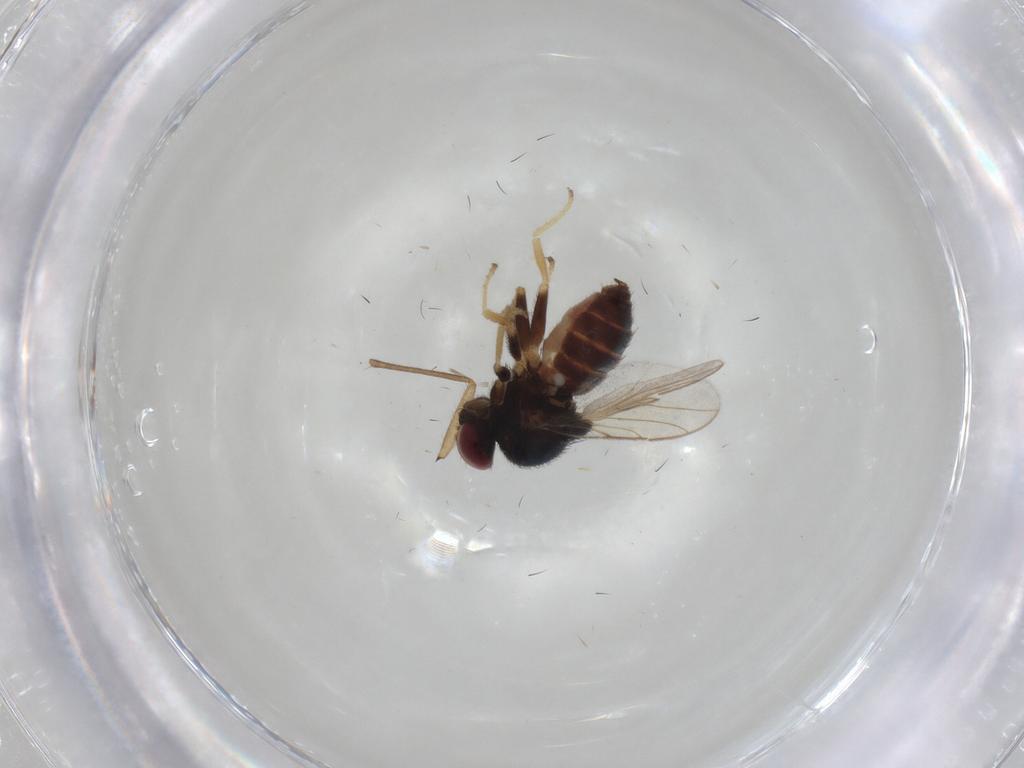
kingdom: Animalia
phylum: Arthropoda
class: Insecta
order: Diptera
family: Chloropidae
